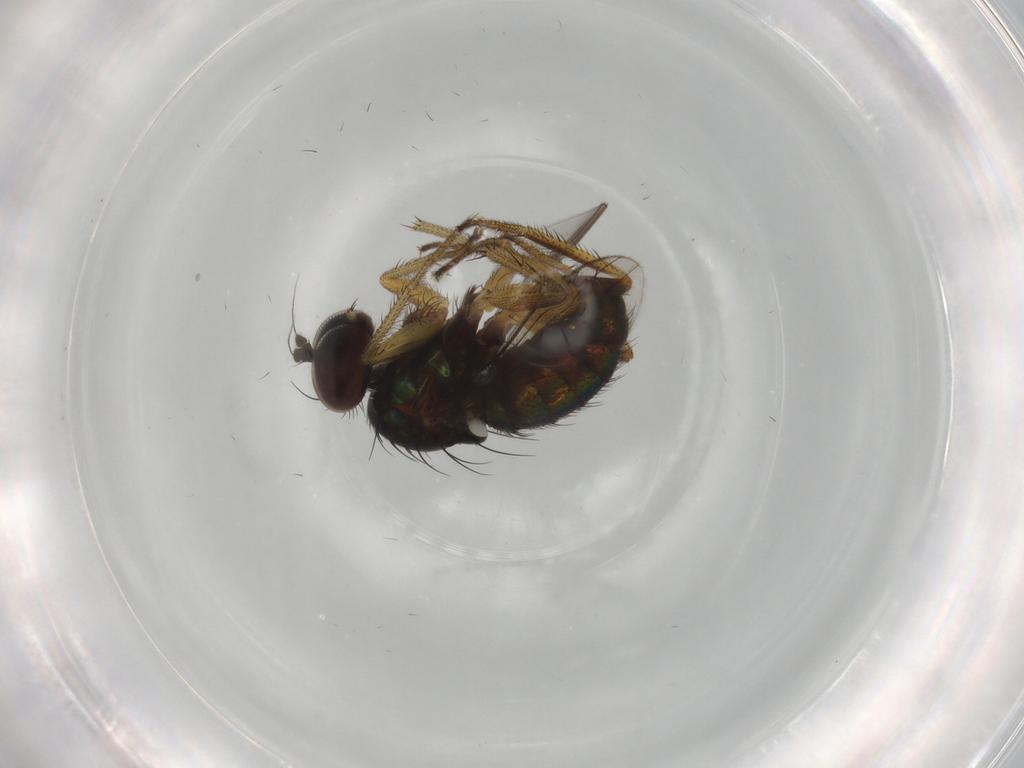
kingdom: Animalia
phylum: Arthropoda
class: Insecta
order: Diptera
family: Dolichopodidae
